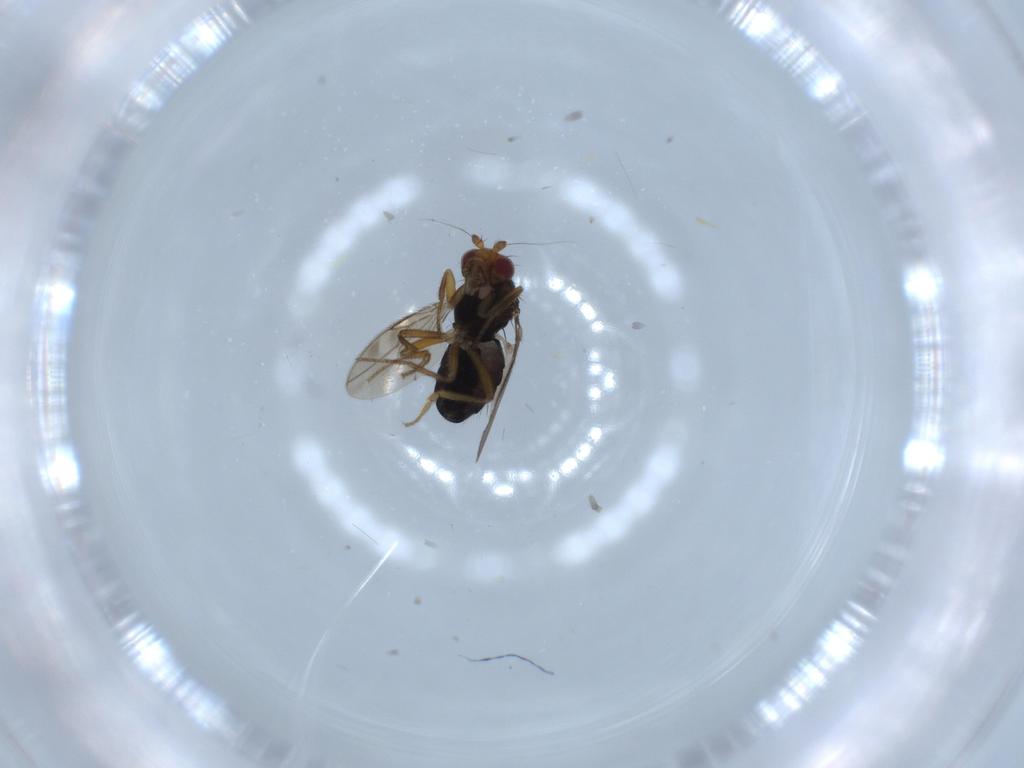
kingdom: Animalia
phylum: Arthropoda
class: Insecta
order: Diptera
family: Sphaeroceridae
